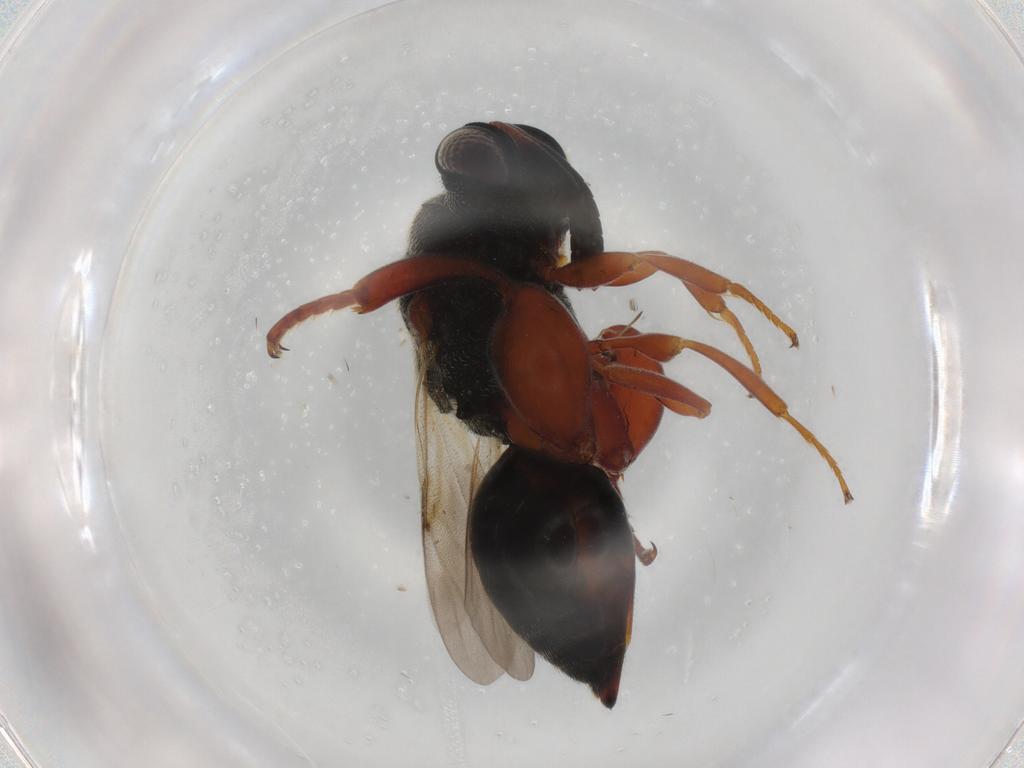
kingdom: Animalia
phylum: Arthropoda
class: Insecta
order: Hymenoptera
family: Mymaridae
